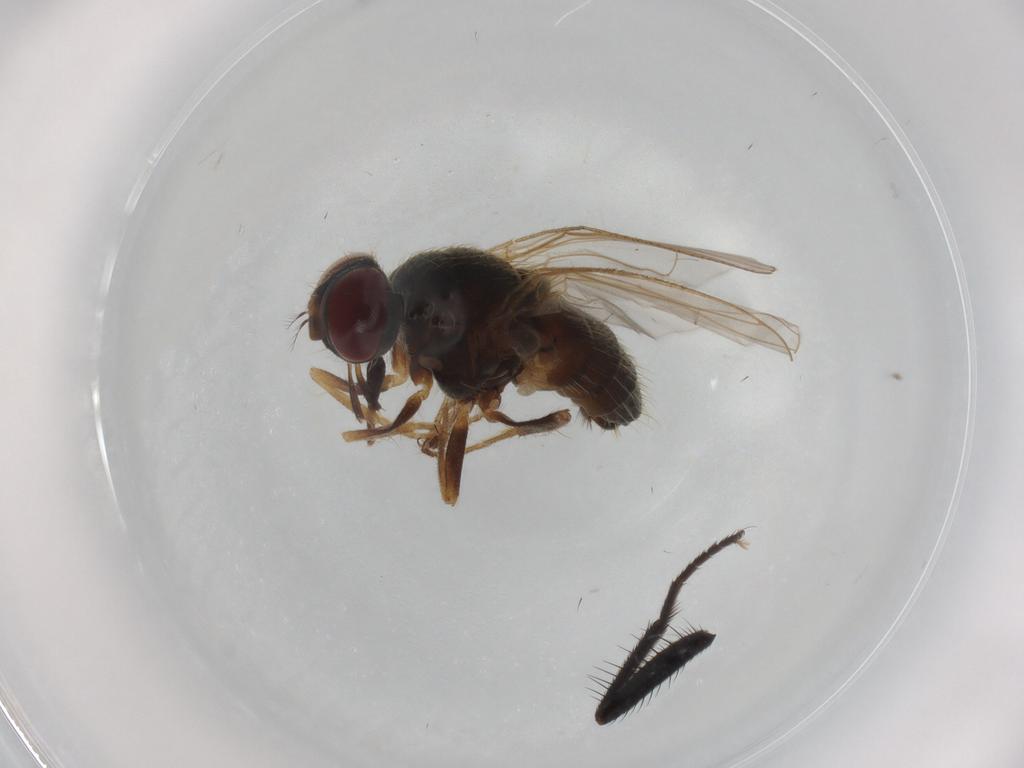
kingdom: Animalia
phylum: Arthropoda
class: Insecta
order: Diptera
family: Muscidae
